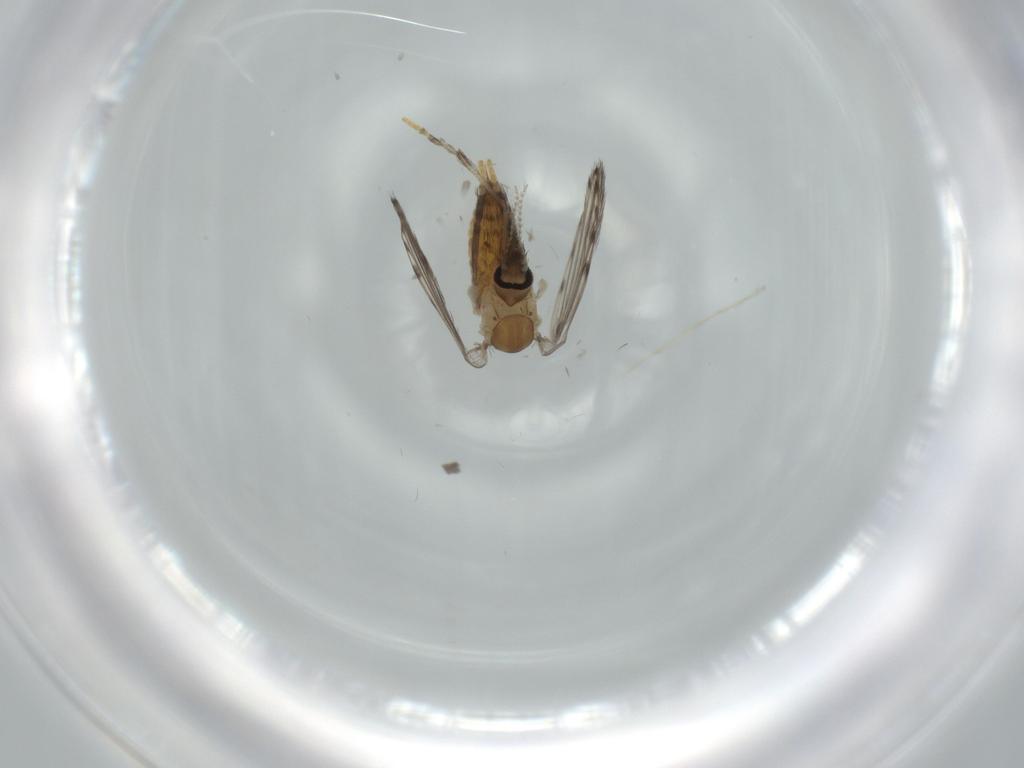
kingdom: Animalia
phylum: Arthropoda
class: Insecta
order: Diptera
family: Psychodidae
